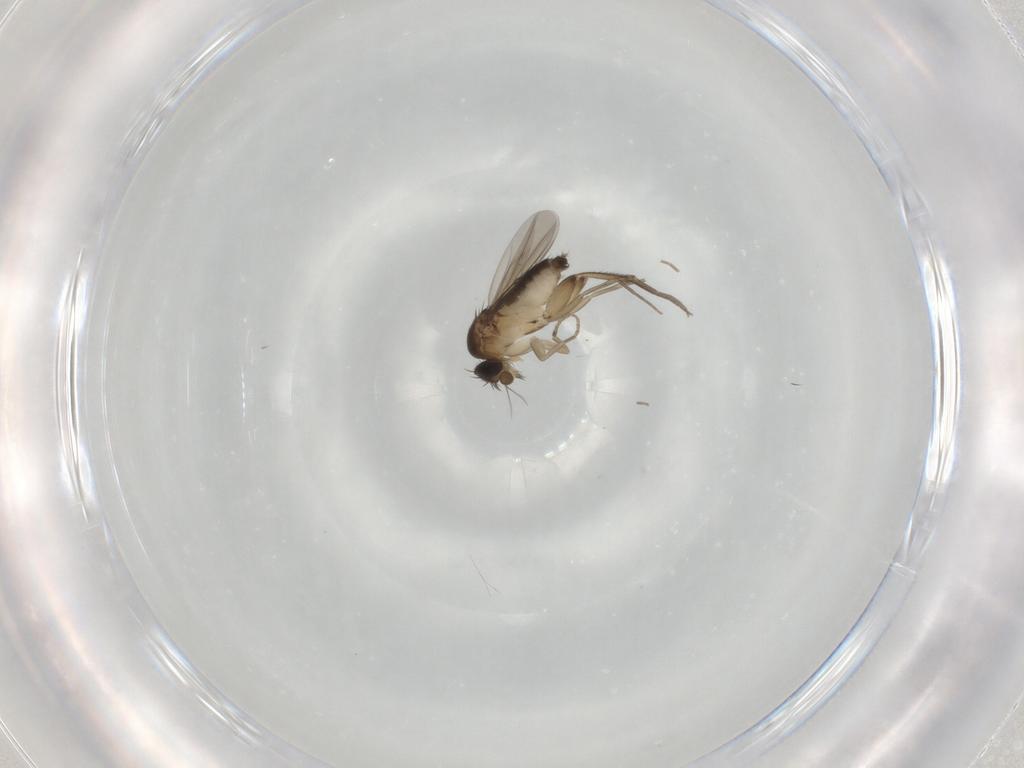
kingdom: Animalia
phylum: Arthropoda
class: Insecta
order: Diptera
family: Phoridae
